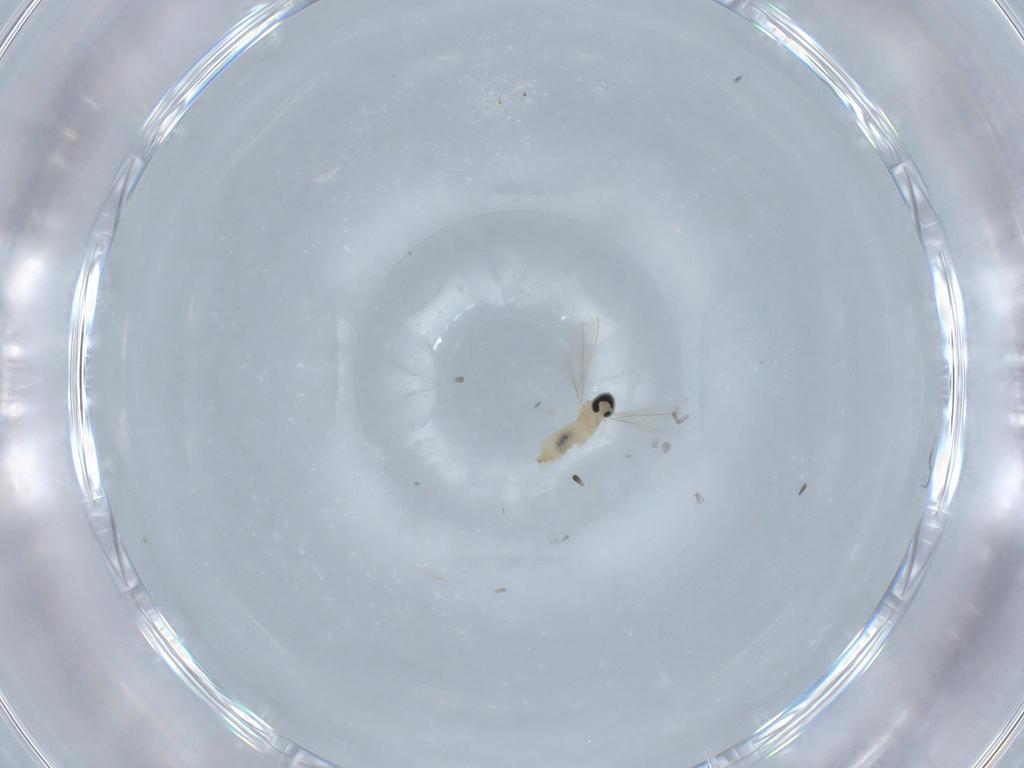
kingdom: Animalia
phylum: Arthropoda
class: Insecta
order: Diptera
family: Cecidomyiidae
